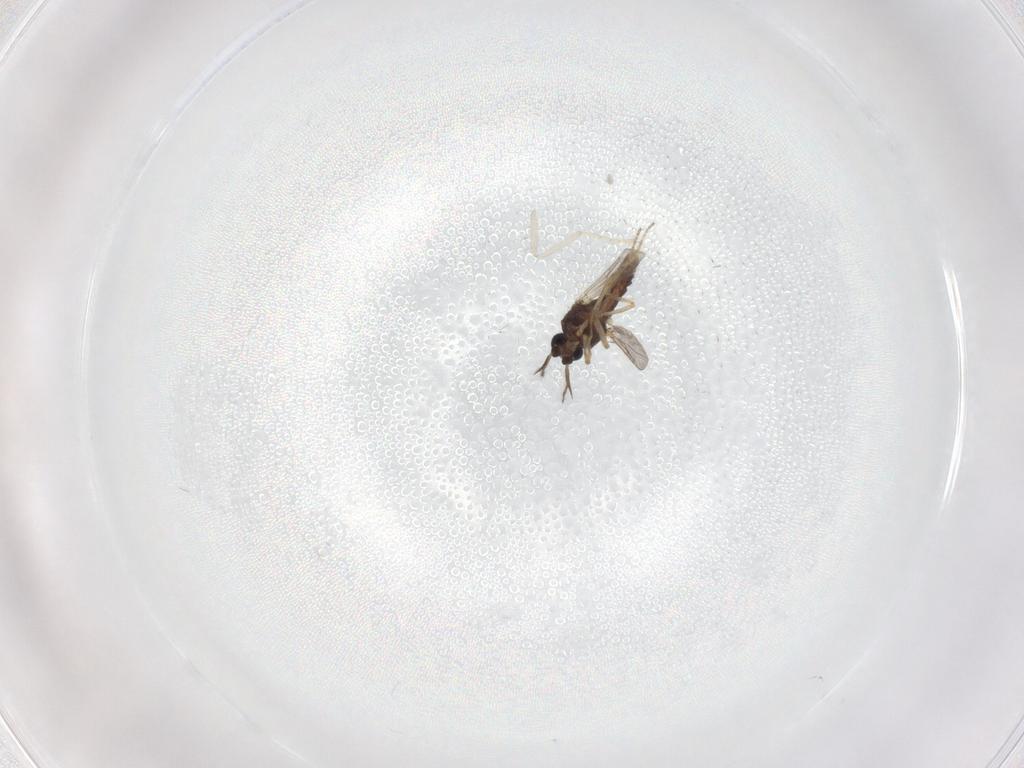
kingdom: Animalia
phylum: Arthropoda
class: Insecta
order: Diptera
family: Ceratopogonidae
